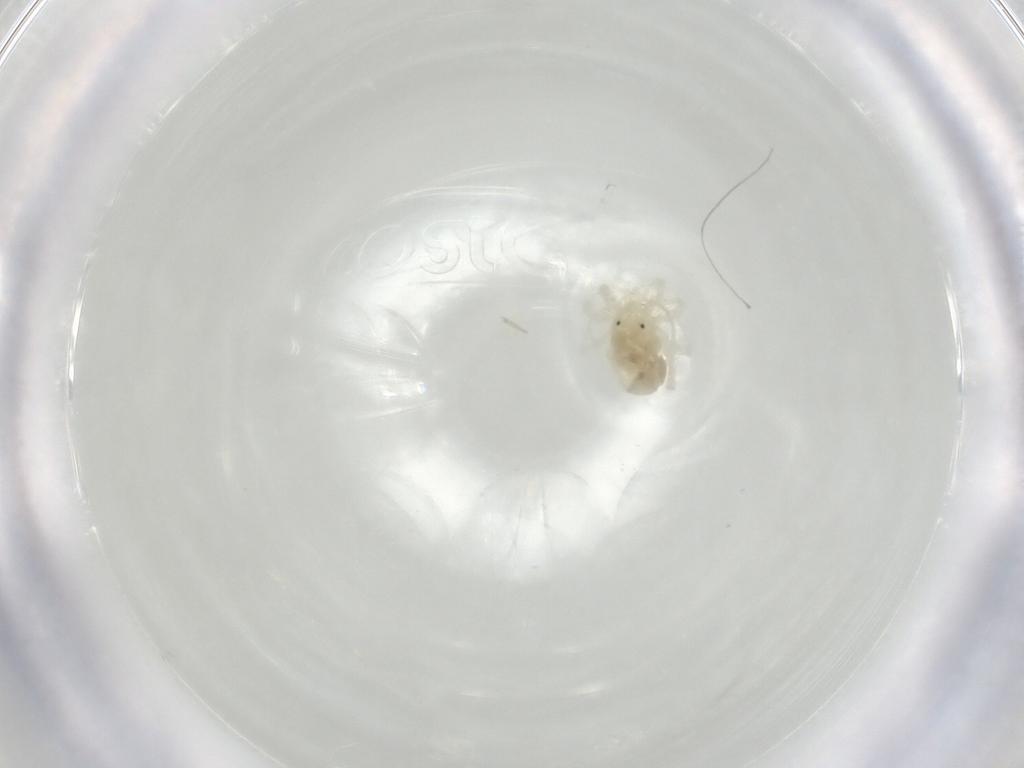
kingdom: Animalia
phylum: Arthropoda
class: Arachnida
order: Trombidiformes
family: Anystidae
